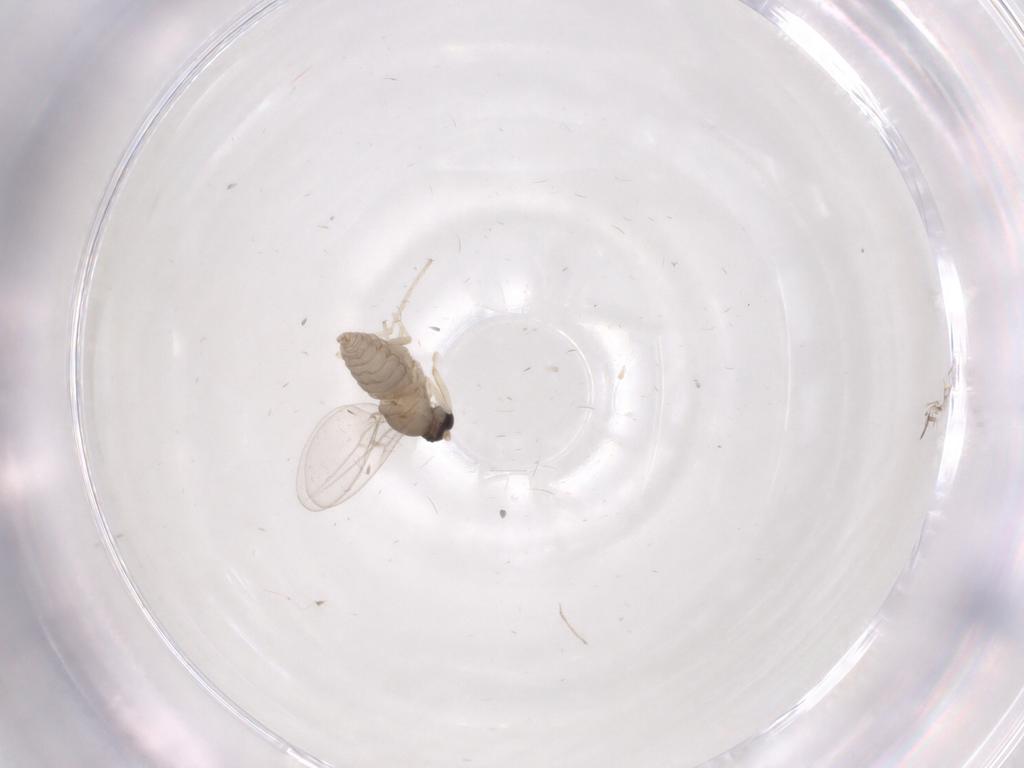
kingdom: Animalia
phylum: Arthropoda
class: Insecta
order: Diptera
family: Cecidomyiidae
